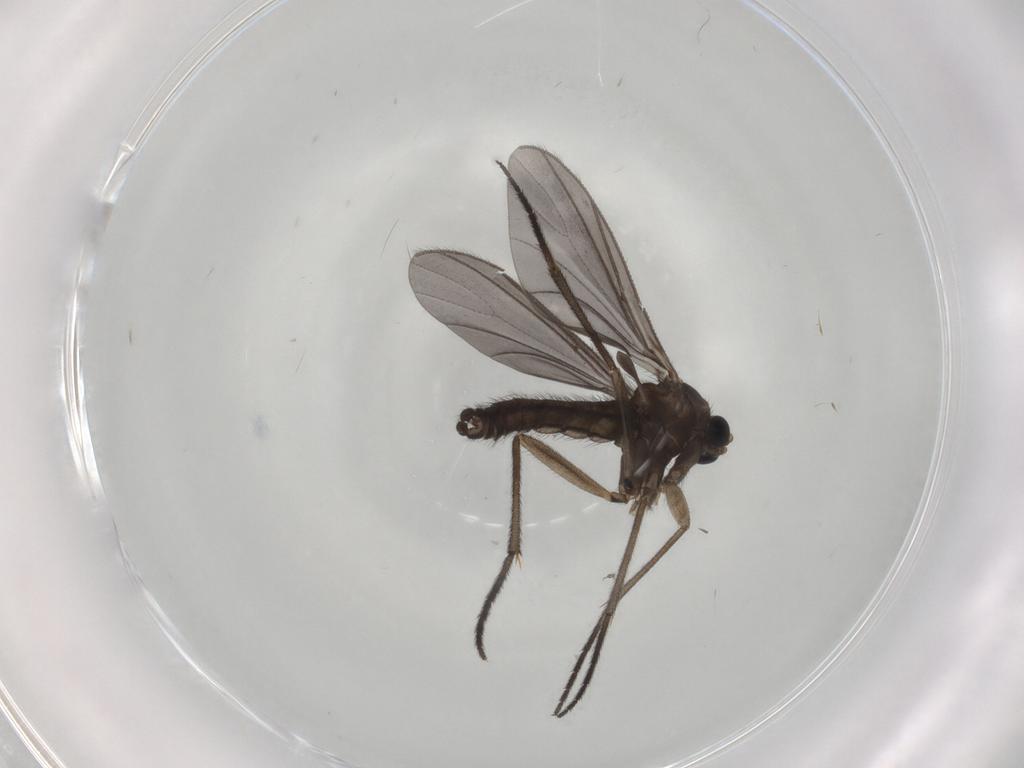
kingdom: Animalia
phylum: Arthropoda
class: Insecta
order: Diptera
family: Sciaridae
